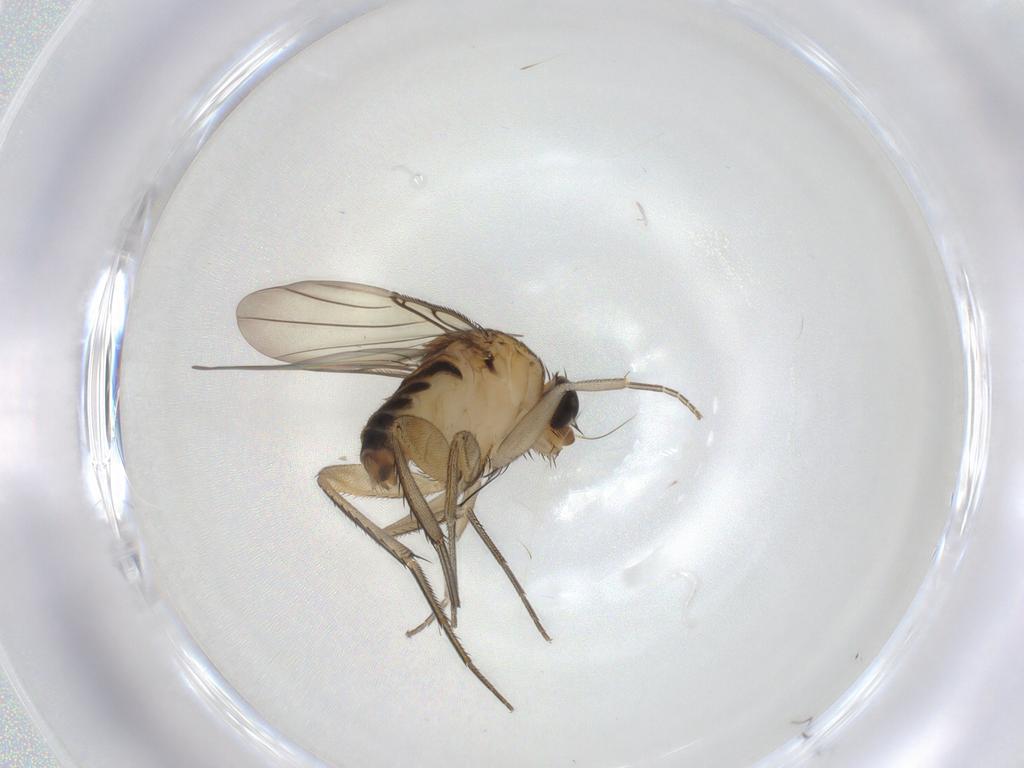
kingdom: Animalia
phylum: Arthropoda
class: Insecta
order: Diptera
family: Phoridae
